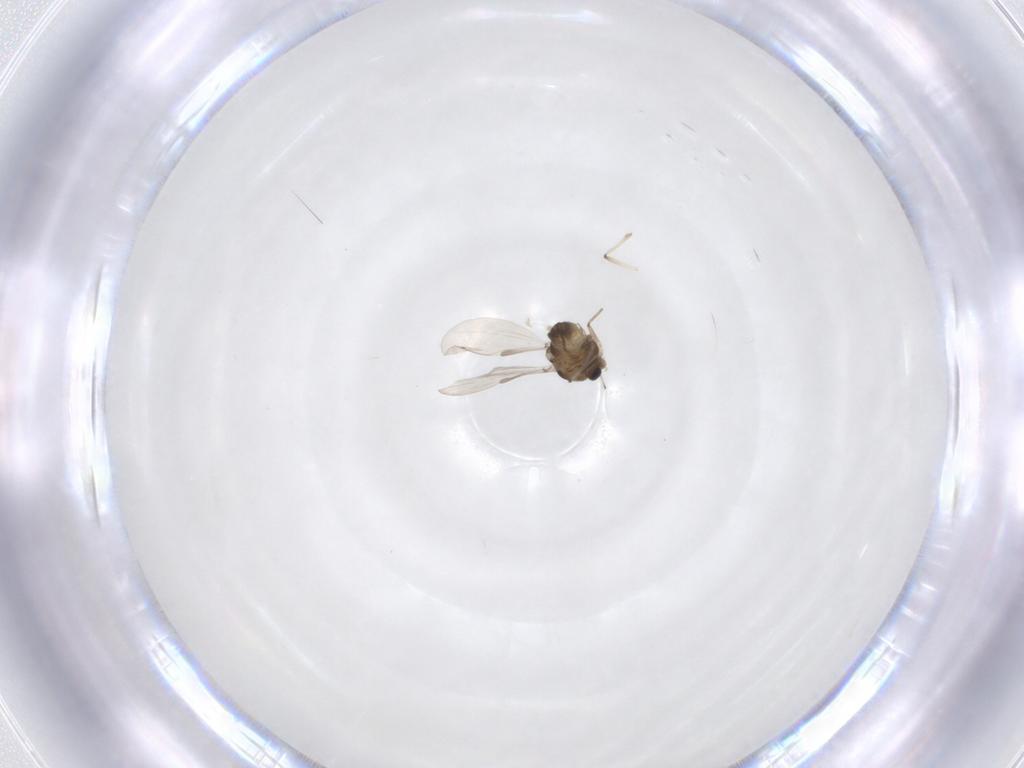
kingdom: Animalia
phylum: Arthropoda
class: Insecta
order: Diptera
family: Chironomidae
